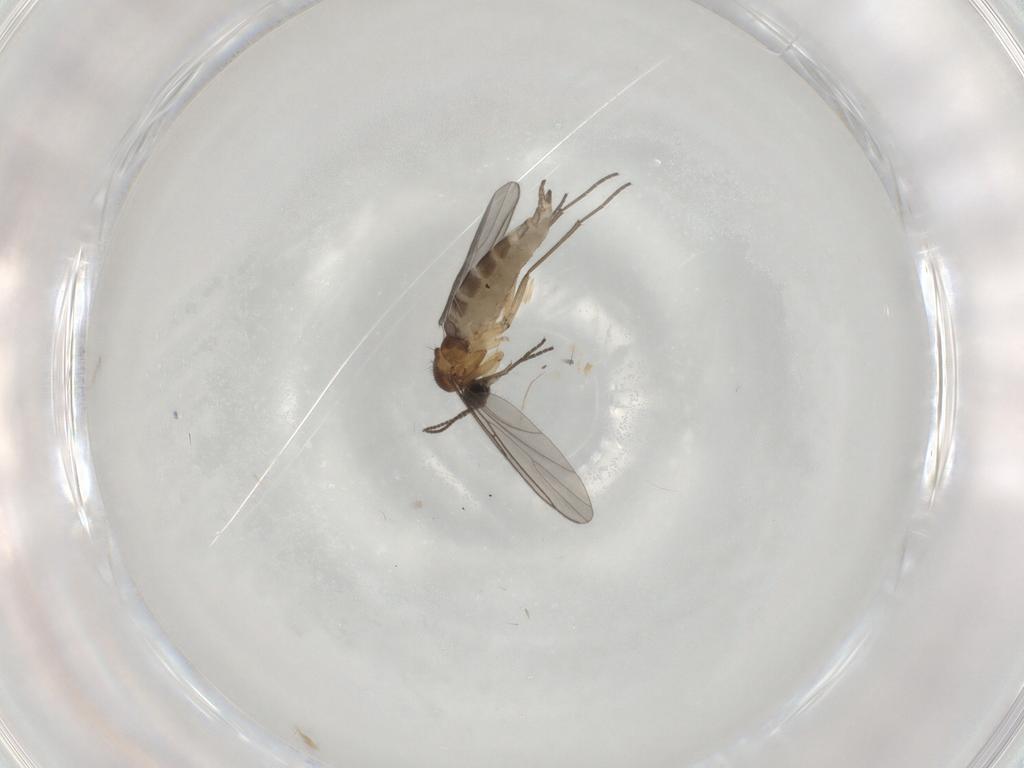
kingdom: Animalia
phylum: Arthropoda
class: Insecta
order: Diptera
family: Sciaridae
